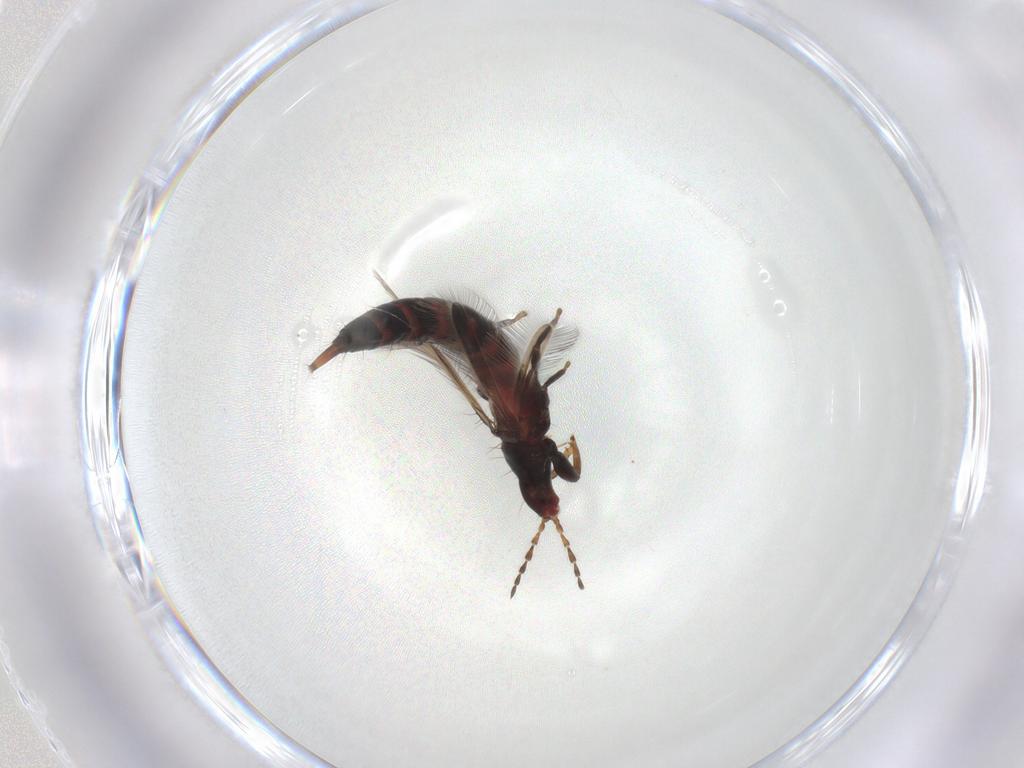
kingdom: Animalia
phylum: Arthropoda
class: Insecta
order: Thysanoptera
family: Phlaeothripidae
